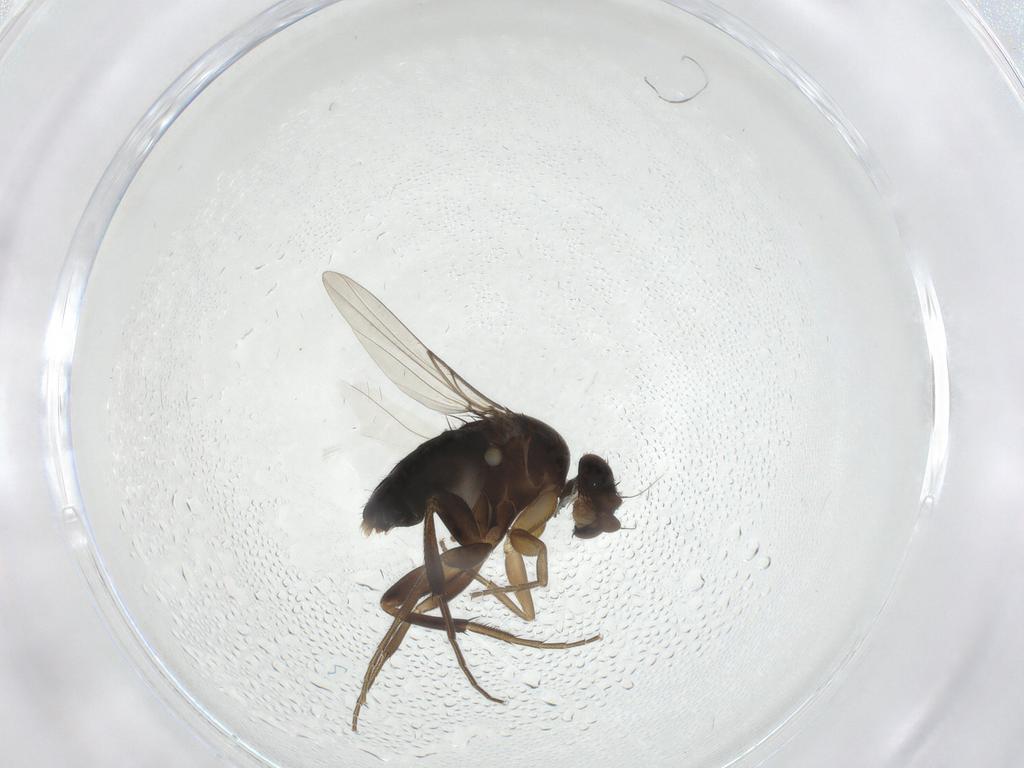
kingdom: Animalia
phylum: Arthropoda
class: Insecta
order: Diptera
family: Phoridae
